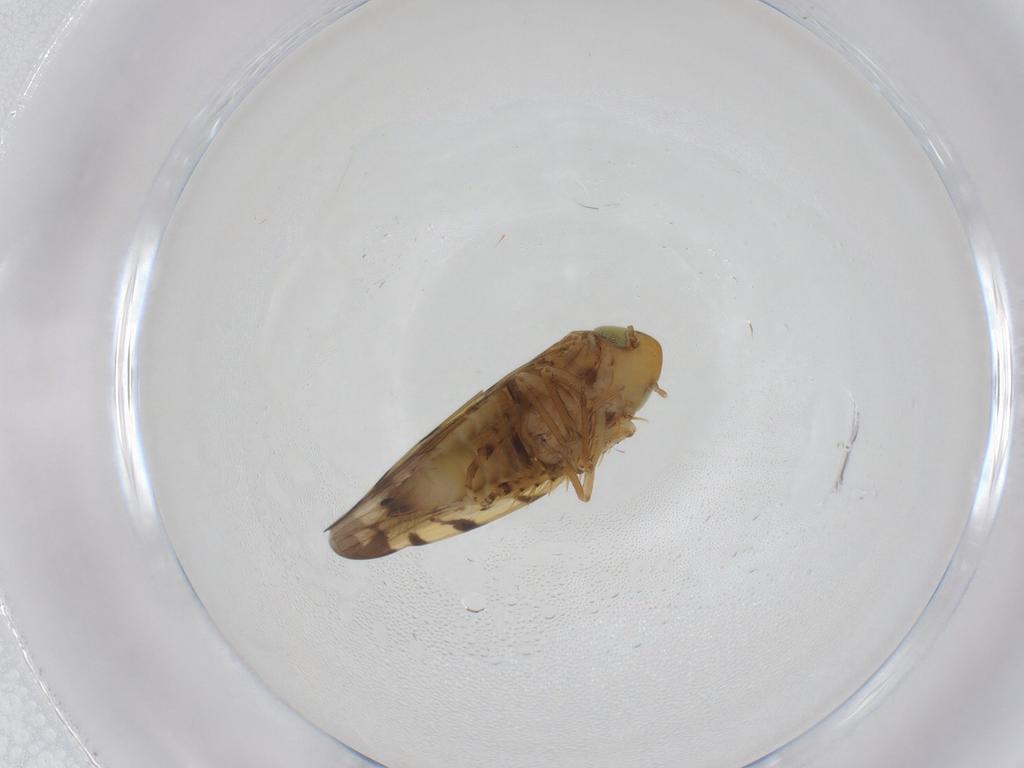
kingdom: Animalia
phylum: Arthropoda
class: Insecta
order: Hemiptera
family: Cicadellidae
